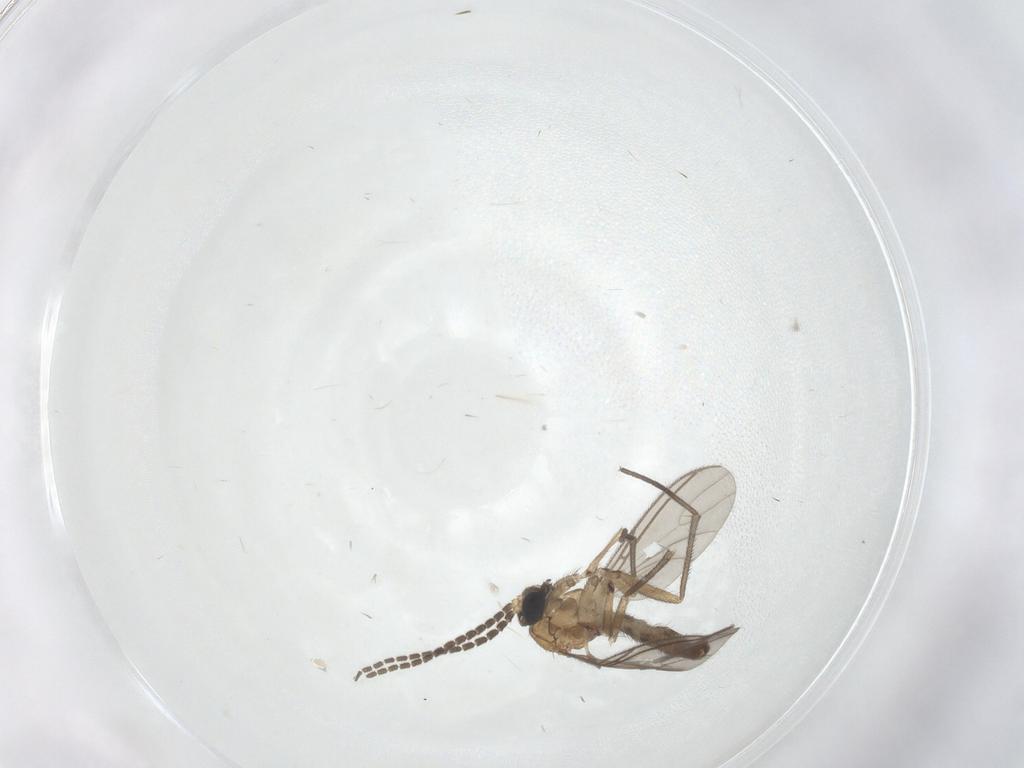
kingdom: Animalia
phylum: Arthropoda
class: Insecta
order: Diptera
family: Sciaridae
